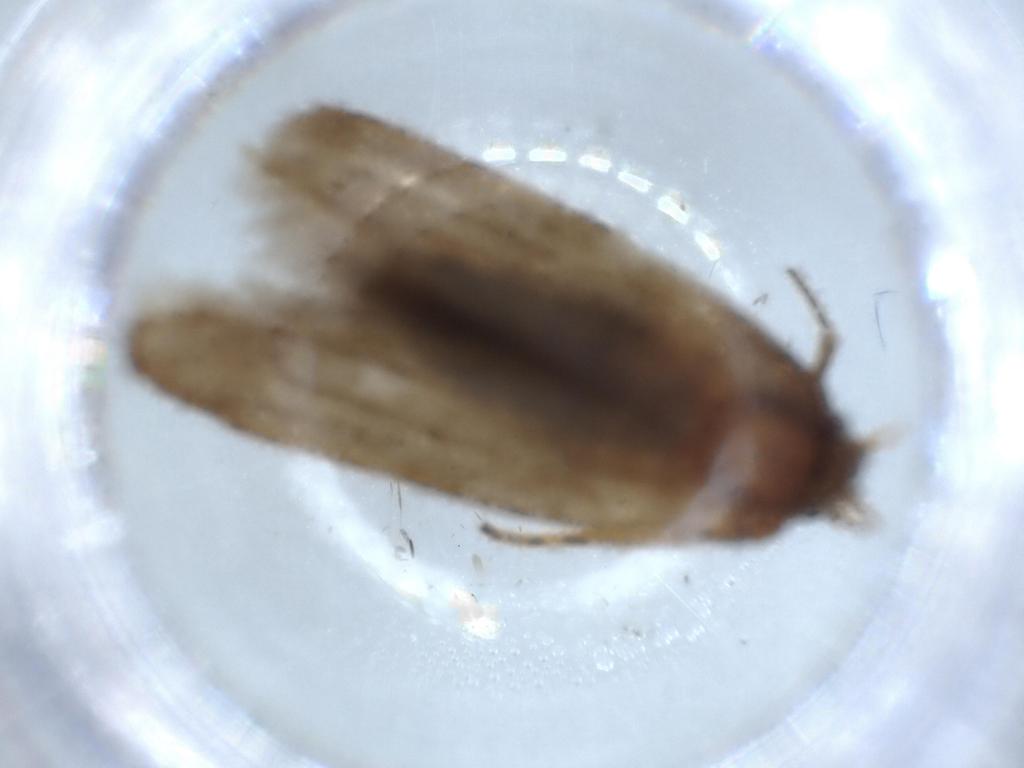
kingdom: Animalia
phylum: Arthropoda
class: Insecta
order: Lepidoptera
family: Blastobasidae
